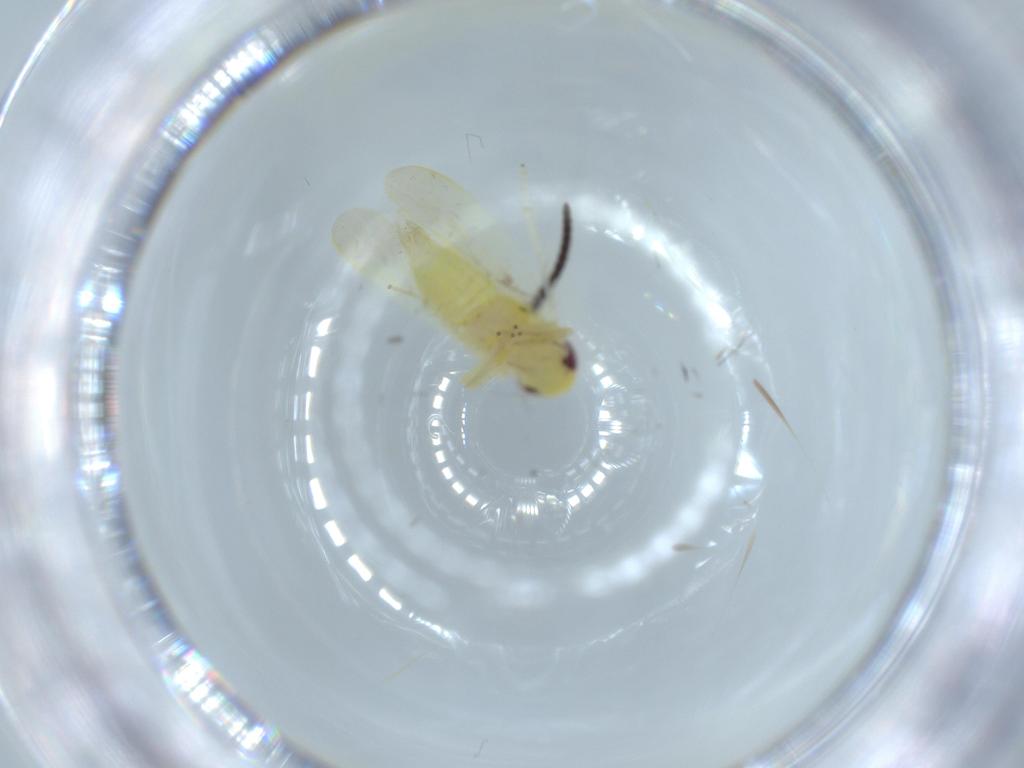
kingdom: Animalia
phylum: Arthropoda
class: Insecta
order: Hemiptera
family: Cicadellidae
